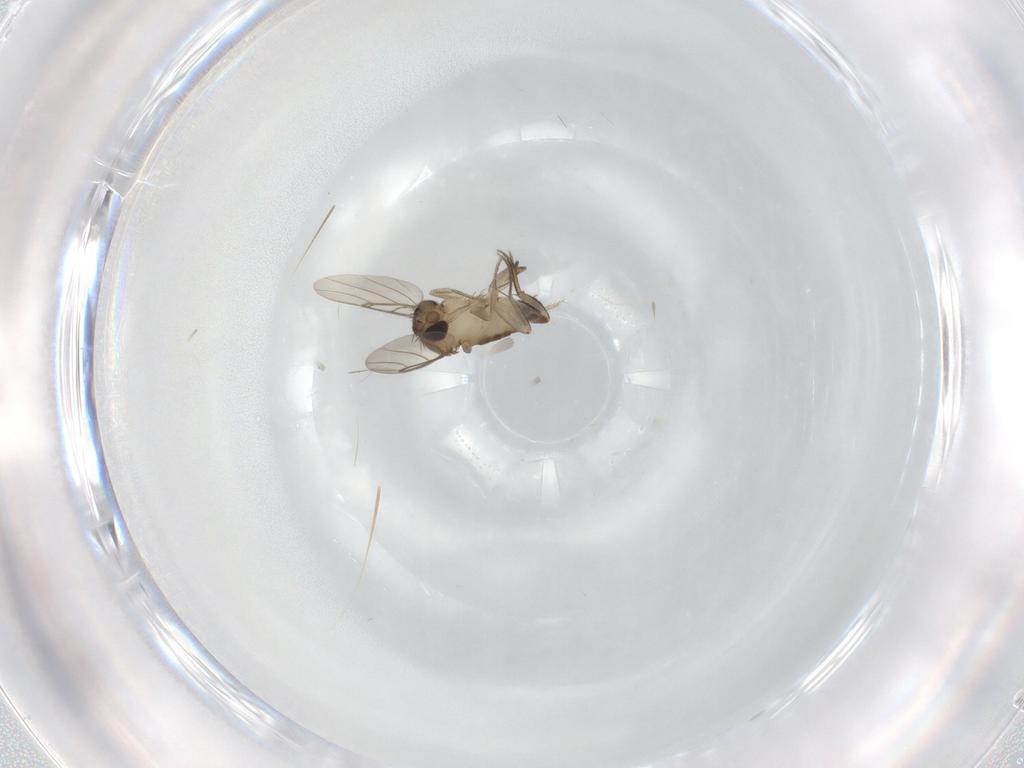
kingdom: Animalia
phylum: Arthropoda
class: Insecta
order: Diptera
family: Phoridae
